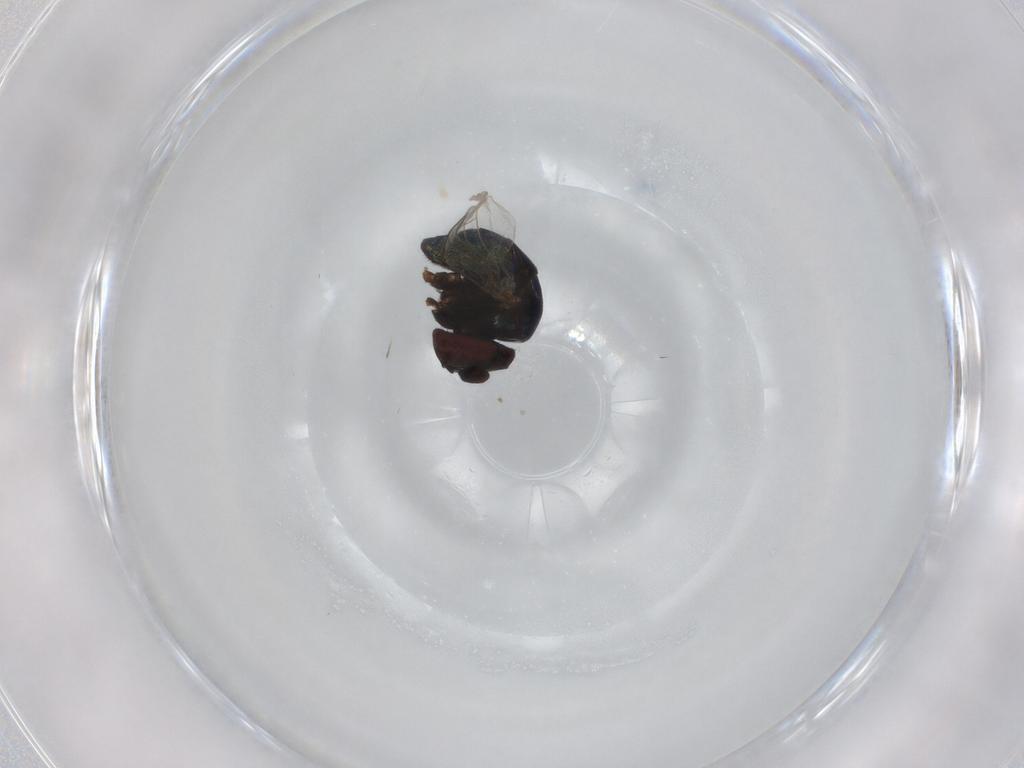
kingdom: Animalia
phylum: Arthropoda
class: Insecta
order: Diptera
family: Cryptochetidae
